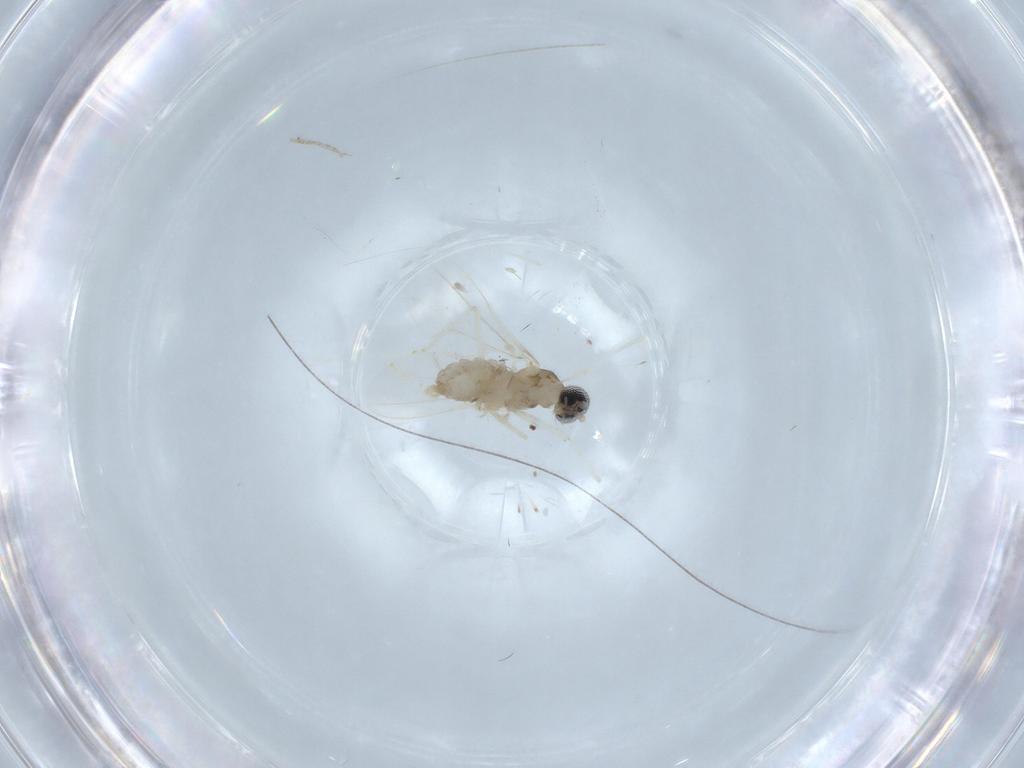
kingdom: Animalia
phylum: Arthropoda
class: Insecta
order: Diptera
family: Cecidomyiidae
